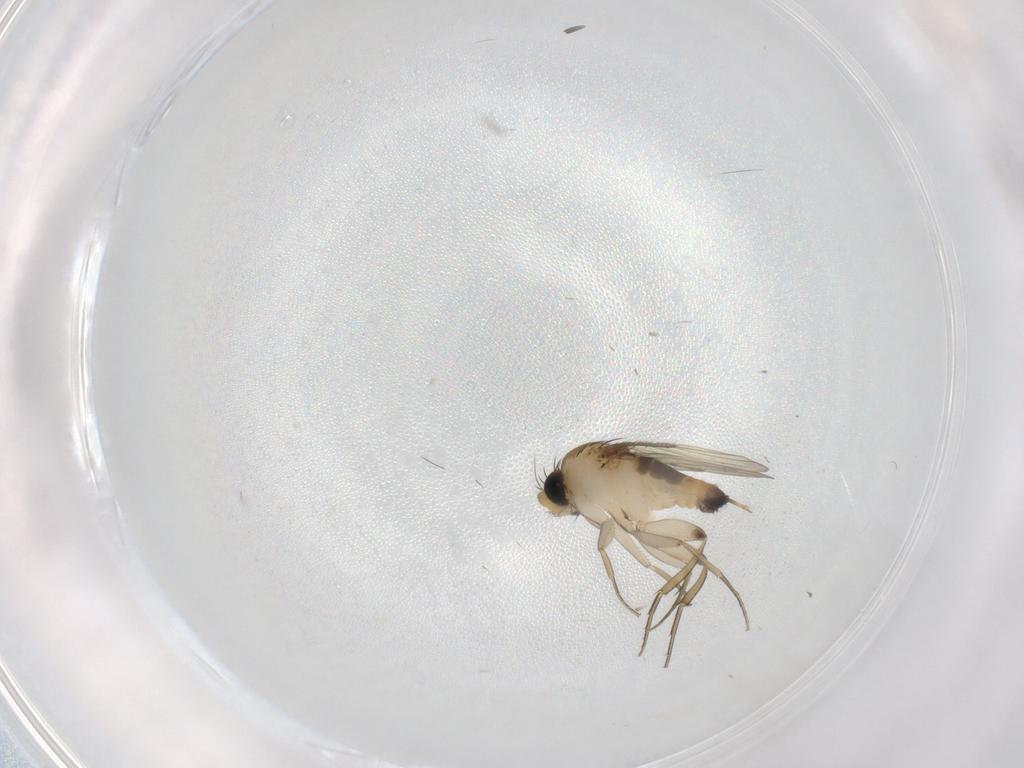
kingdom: Animalia
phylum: Arthropoda
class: Insecta
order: Diptera
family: Phoridae
